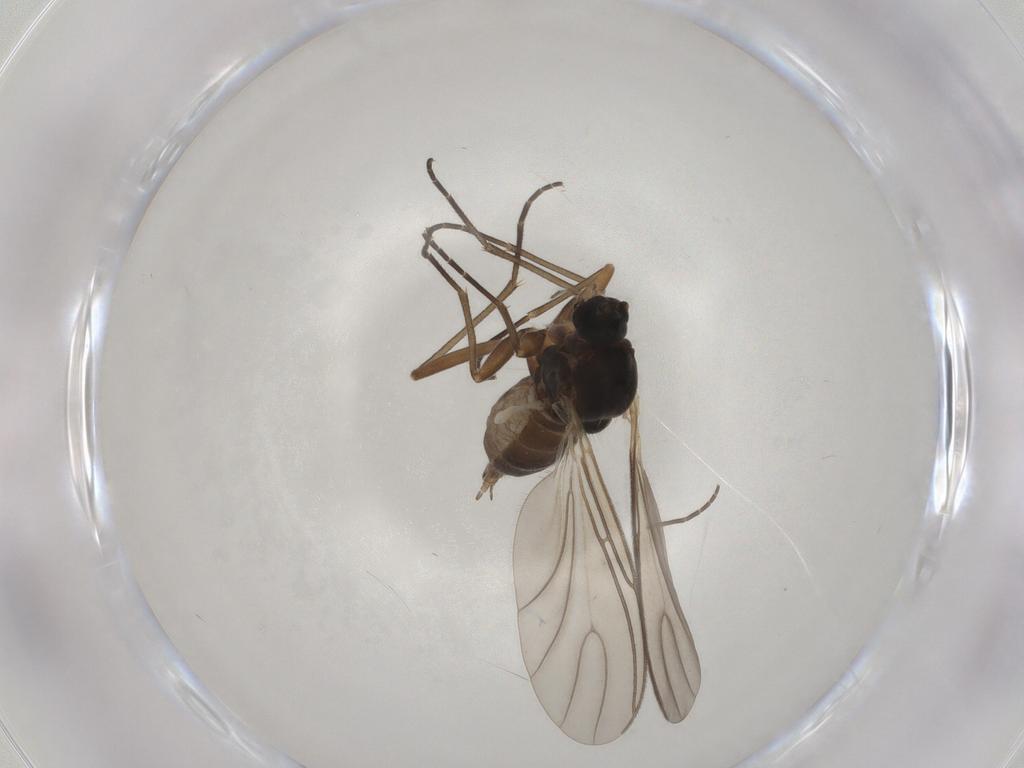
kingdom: Animalia
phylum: Arthropoda
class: Insecta
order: Diptera
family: Sciaridae
